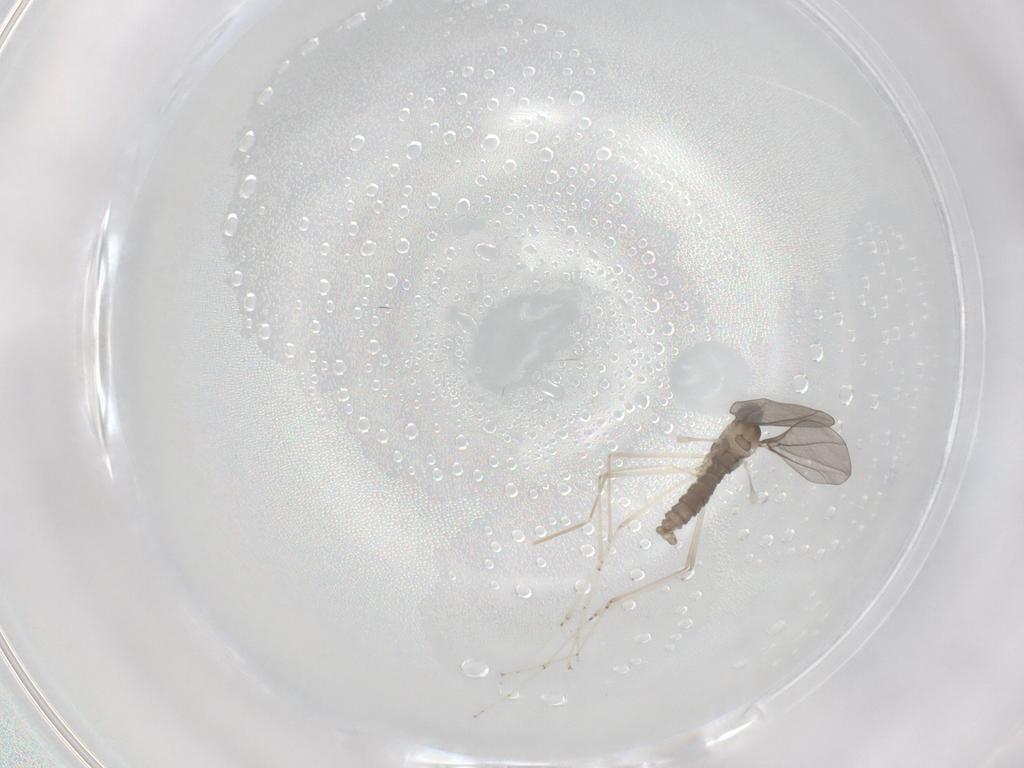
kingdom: Animalia
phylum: Arthropoda
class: Insecta
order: Diptera
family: Cecidomyiidae
